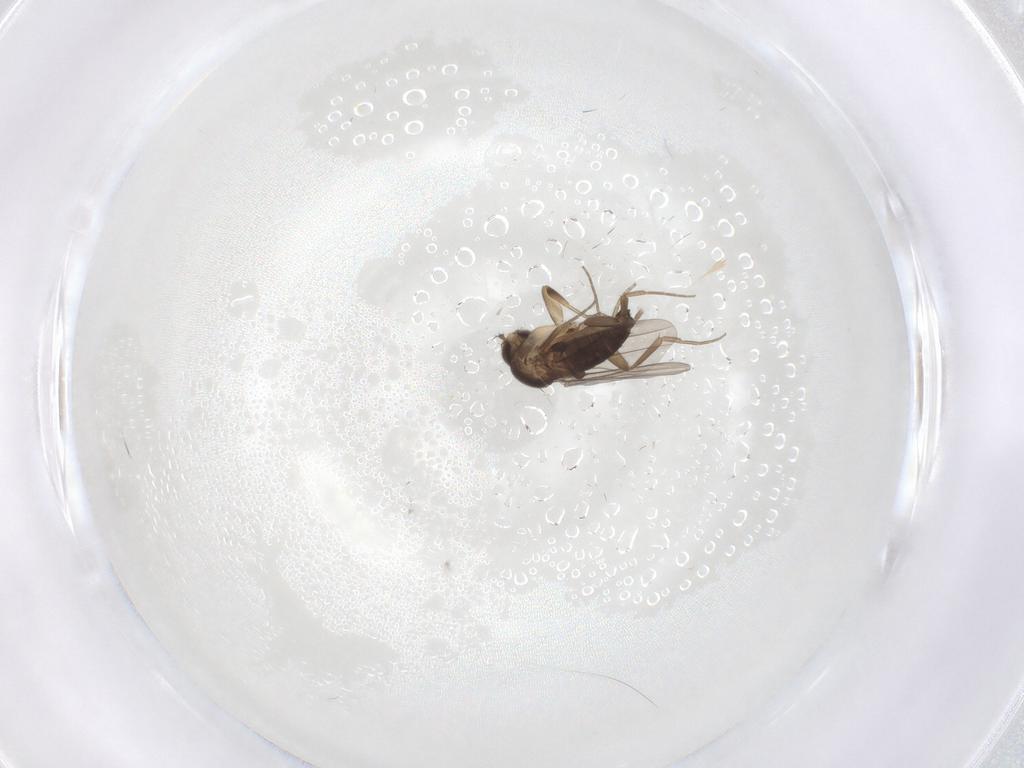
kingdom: Animalia
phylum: Arthropoda
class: Insecta
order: Diptera
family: Phoridae
